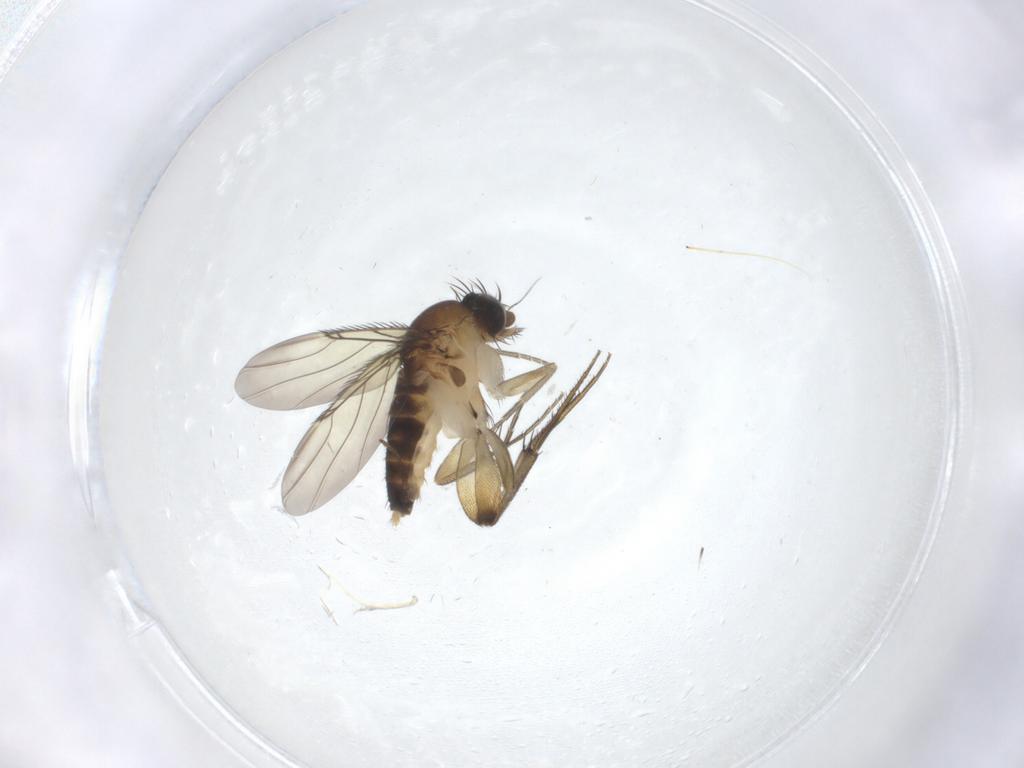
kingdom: Animalia
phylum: Arthropoda
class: Insecta
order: Diptera
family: Phoridae
